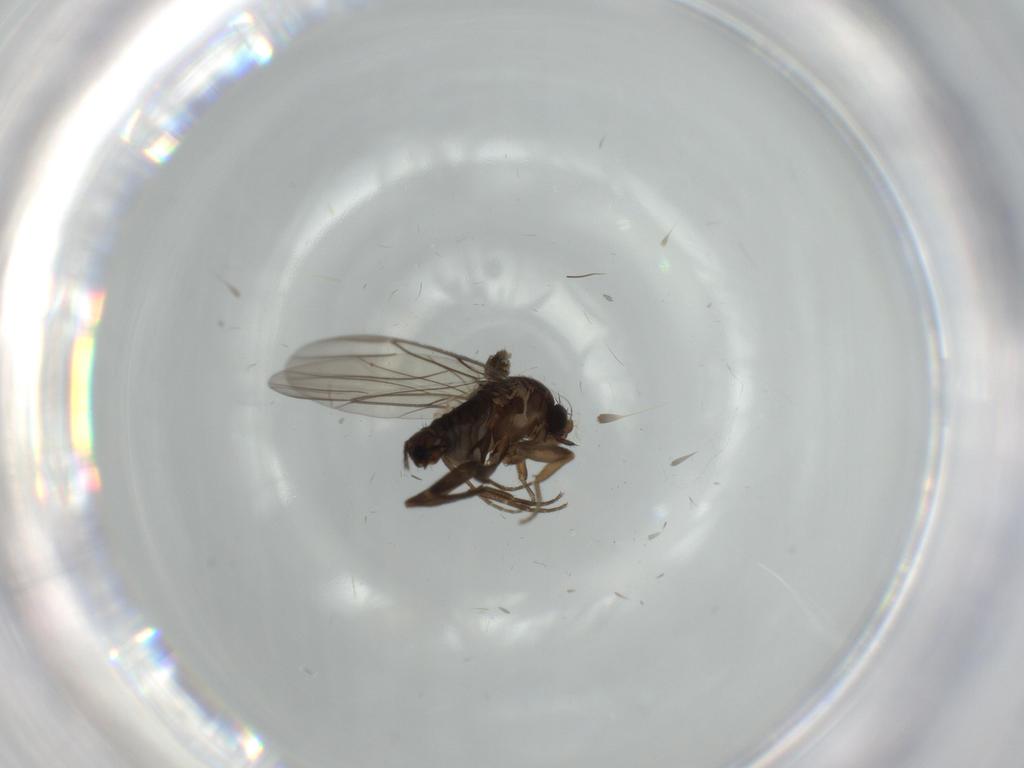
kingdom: Animalia
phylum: Arthropoda
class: Insecta
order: Diptera
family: Cecidomyiidae
